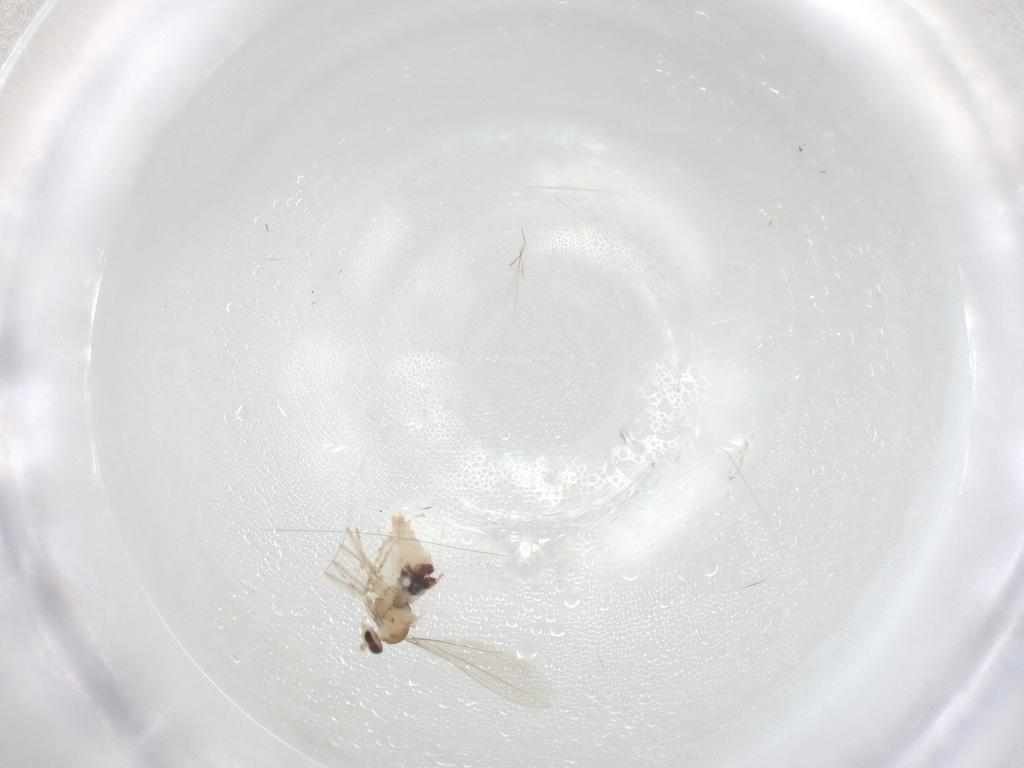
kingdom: Animalia
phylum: Arthropoda
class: Insecta
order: Diptera
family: Cecidomyiidae
